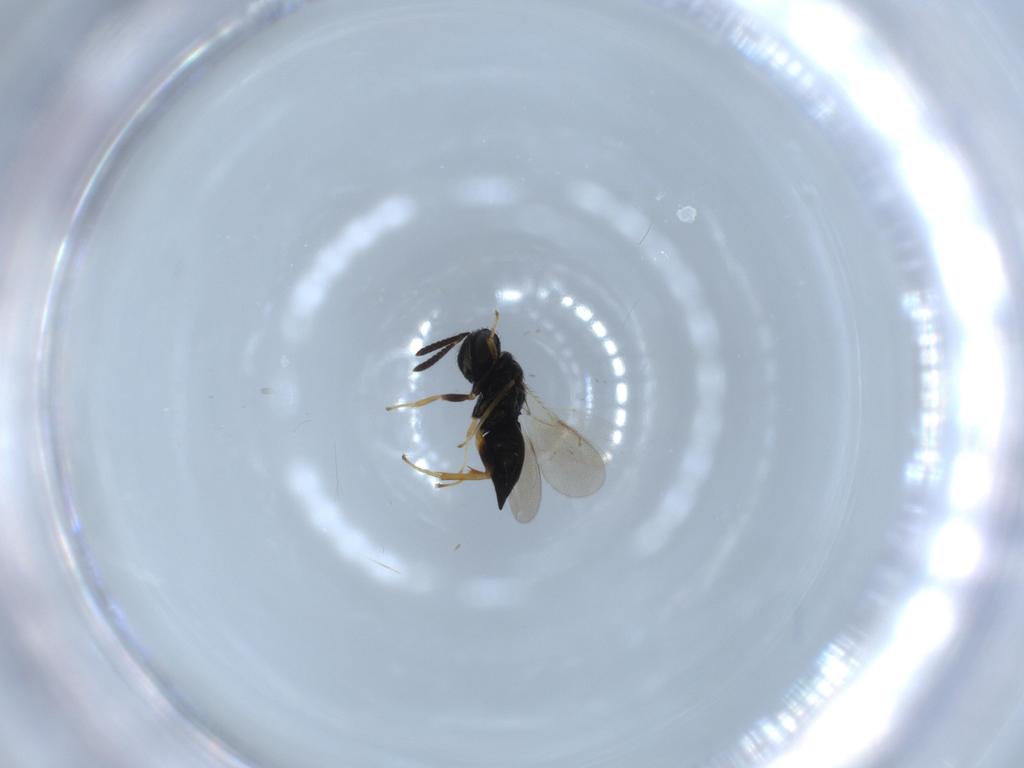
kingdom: Animalia
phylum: Arthropoda
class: Insecta
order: Hymenoptera
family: Pteromalidae
